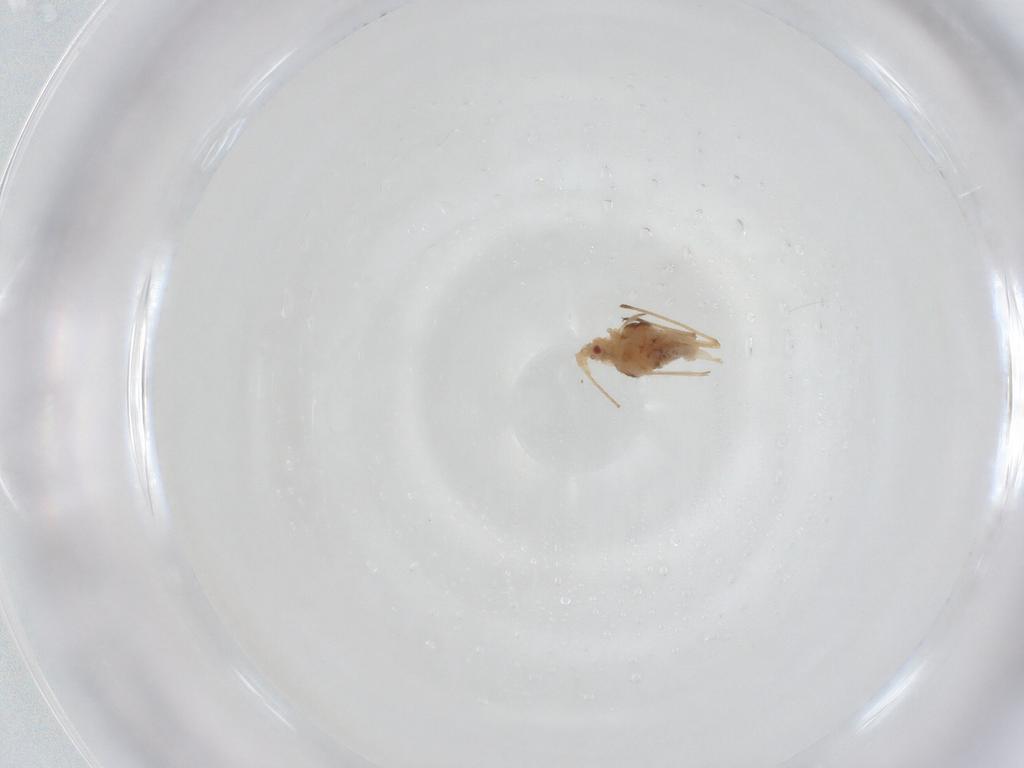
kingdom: Animalia
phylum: Arthropoda
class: Insecta
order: Hemiptera
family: Aphididae
